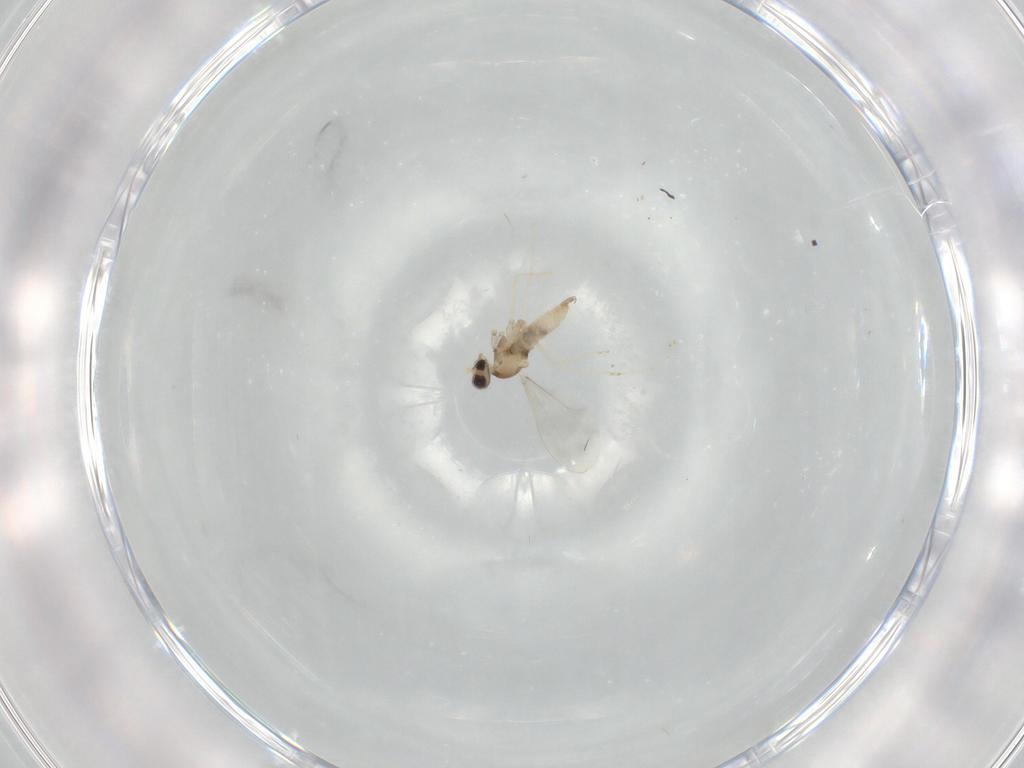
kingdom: Animalia
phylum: Arthropoda
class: Insecta
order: Diptera
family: Cecidomyiidae
